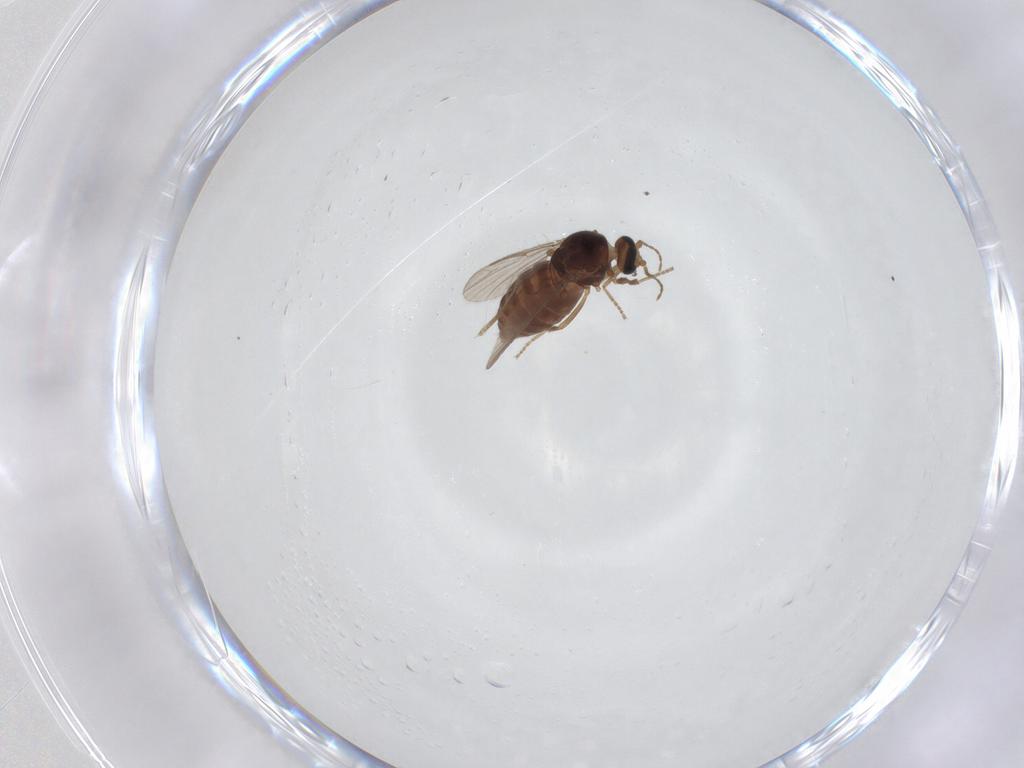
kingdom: Animalia
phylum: Arthropoda
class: Insecta
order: Diptera
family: Ceratopogonidae
